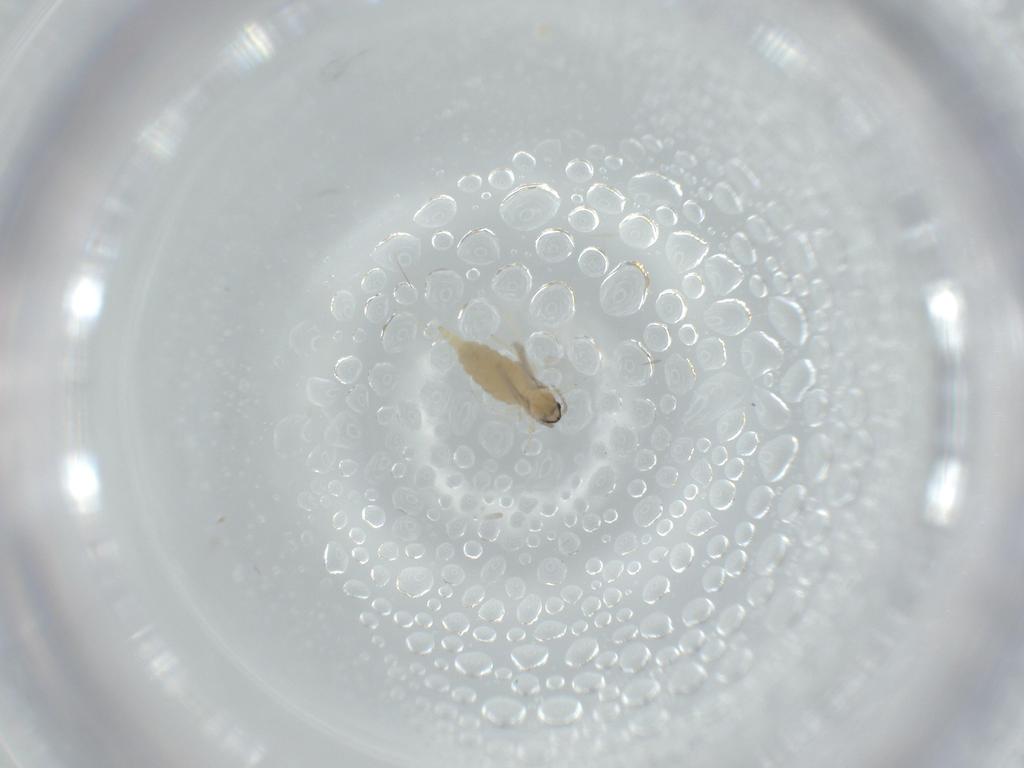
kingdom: Animalia
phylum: Arthropoda
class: Insecta
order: Diptera
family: Cecidomyiidae
